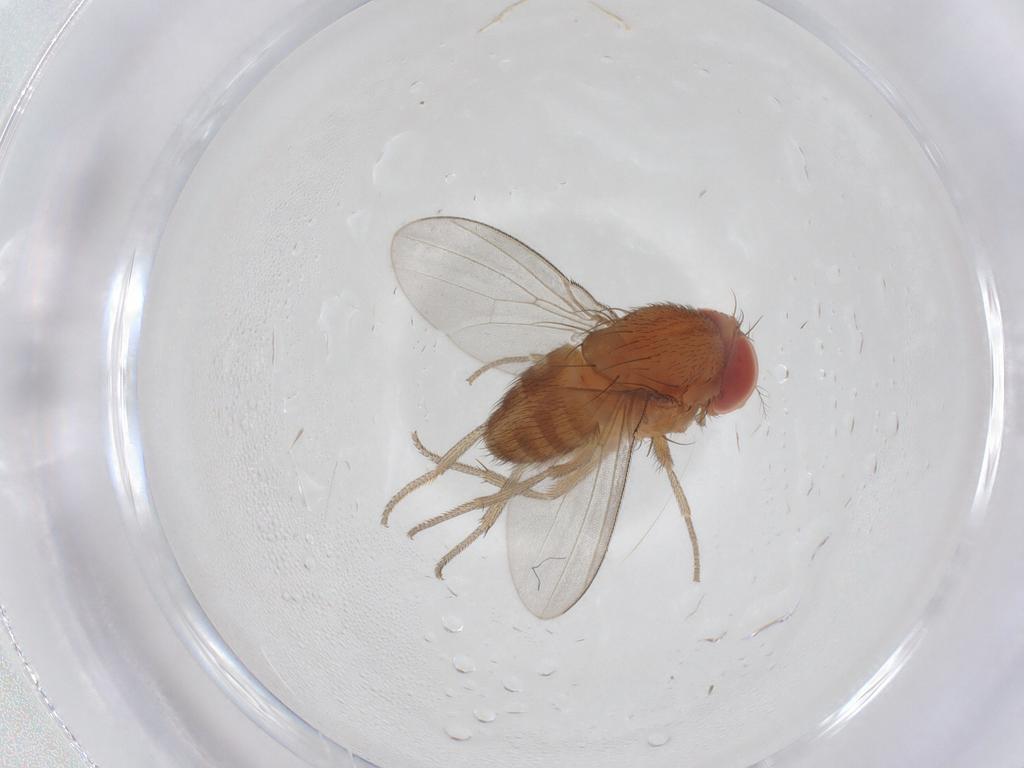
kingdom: Animalia
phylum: Arthropoda
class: Insecta
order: Diptera
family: Drosophilidae
